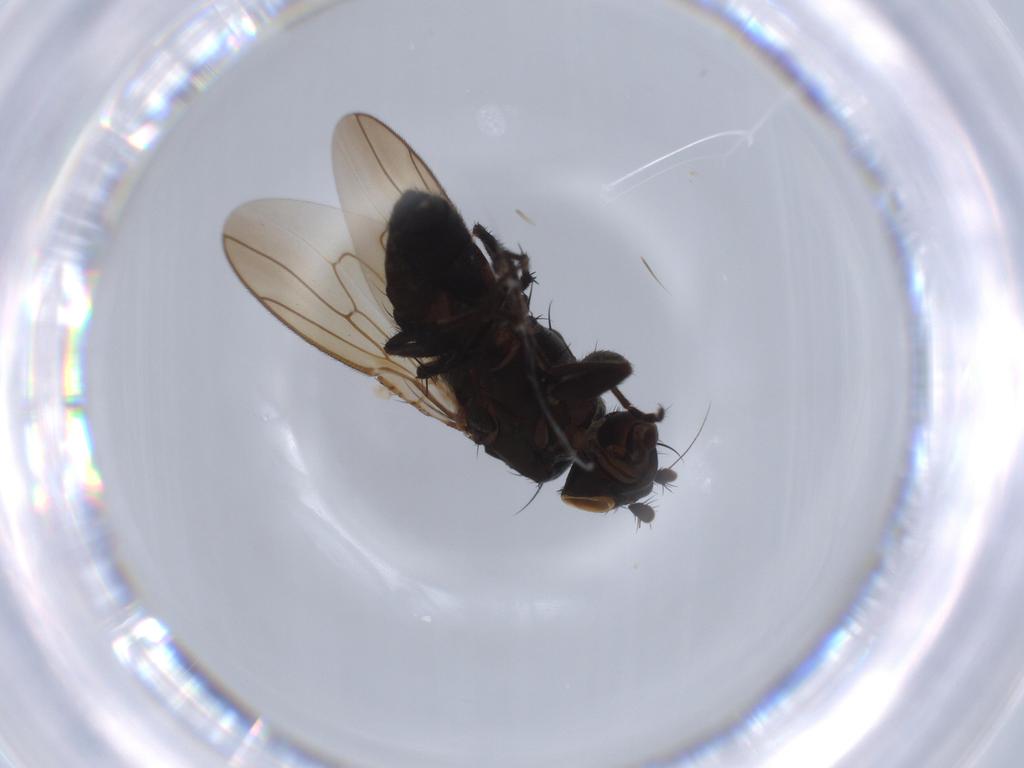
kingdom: Animalia
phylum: Arthropoda
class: Insecta
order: Diptera
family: Sphaeroceridae
